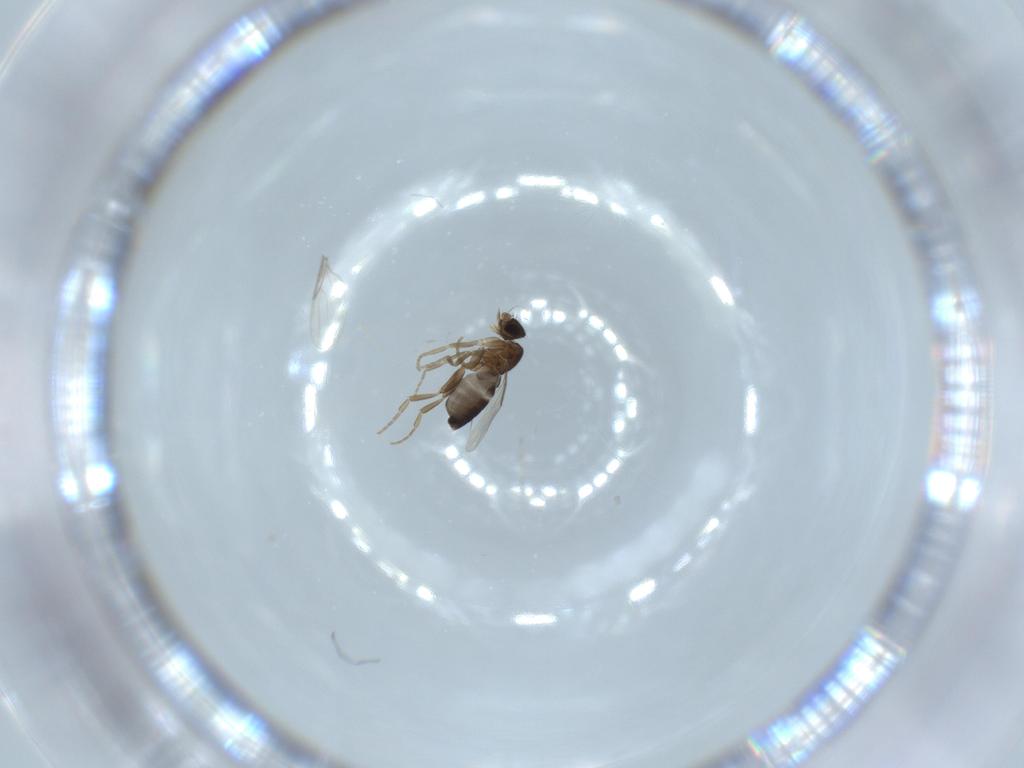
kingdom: Animalia
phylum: Arthropoda
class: Insecta
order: Diptera
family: Phoridae
